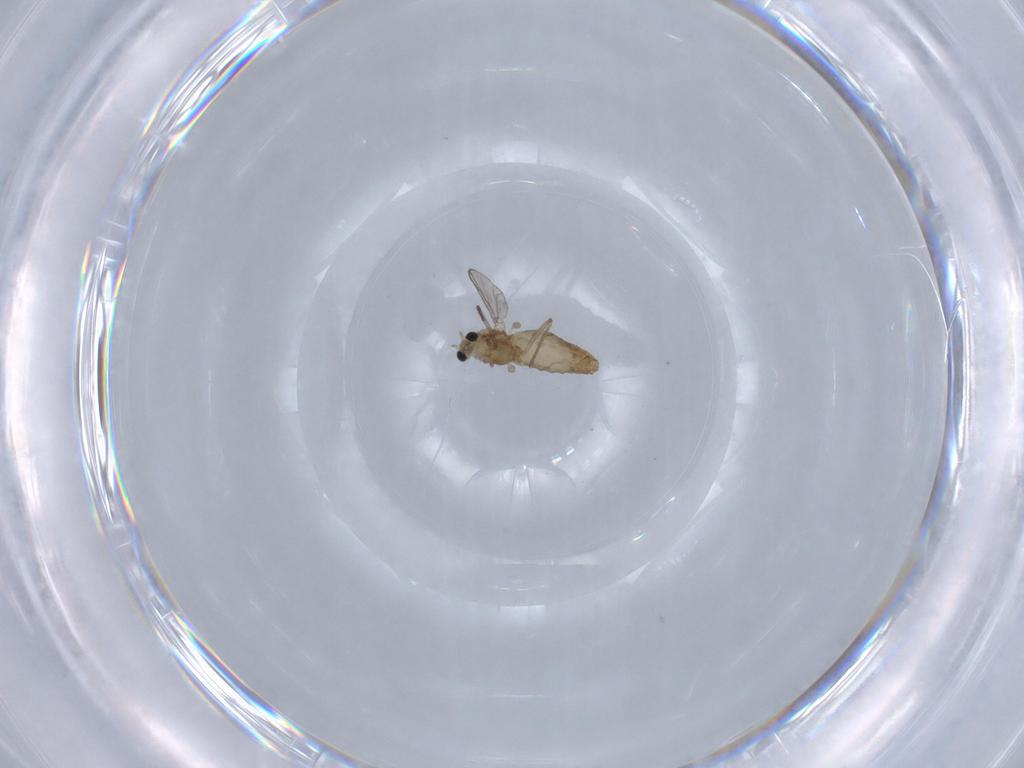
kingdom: Animalia
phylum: Arthropoda
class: Insecta
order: Diptera
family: Chironomidae
